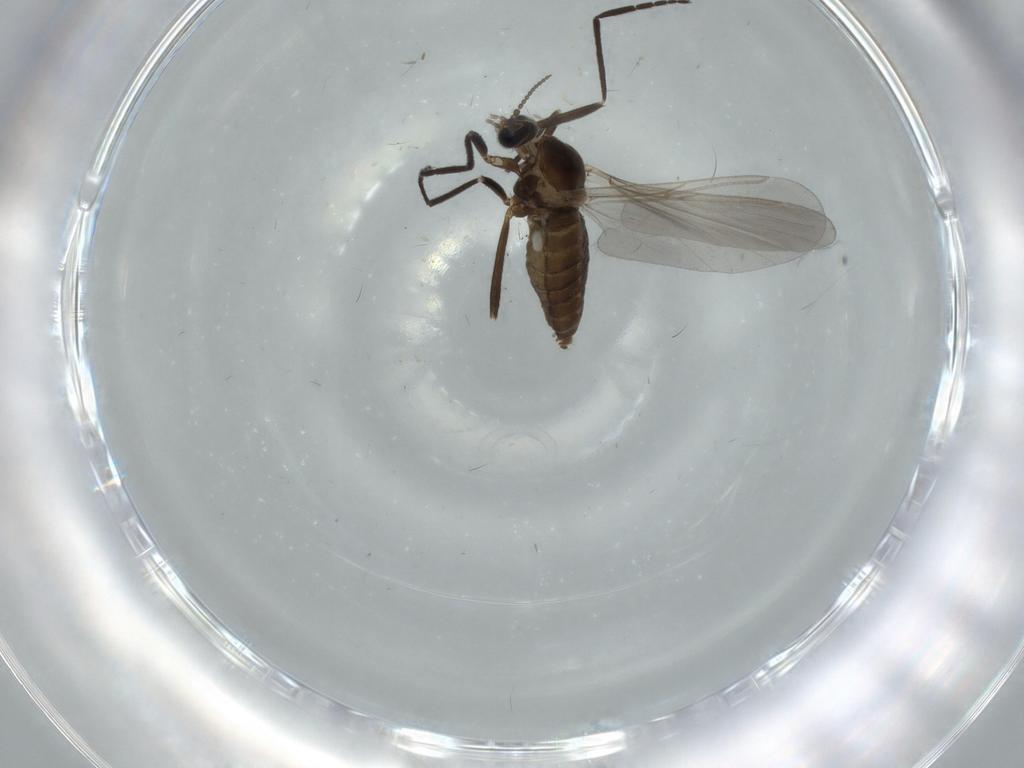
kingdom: Animalia
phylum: Arthropoda
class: Insecta
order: Diptera
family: Cecidomyiidae
